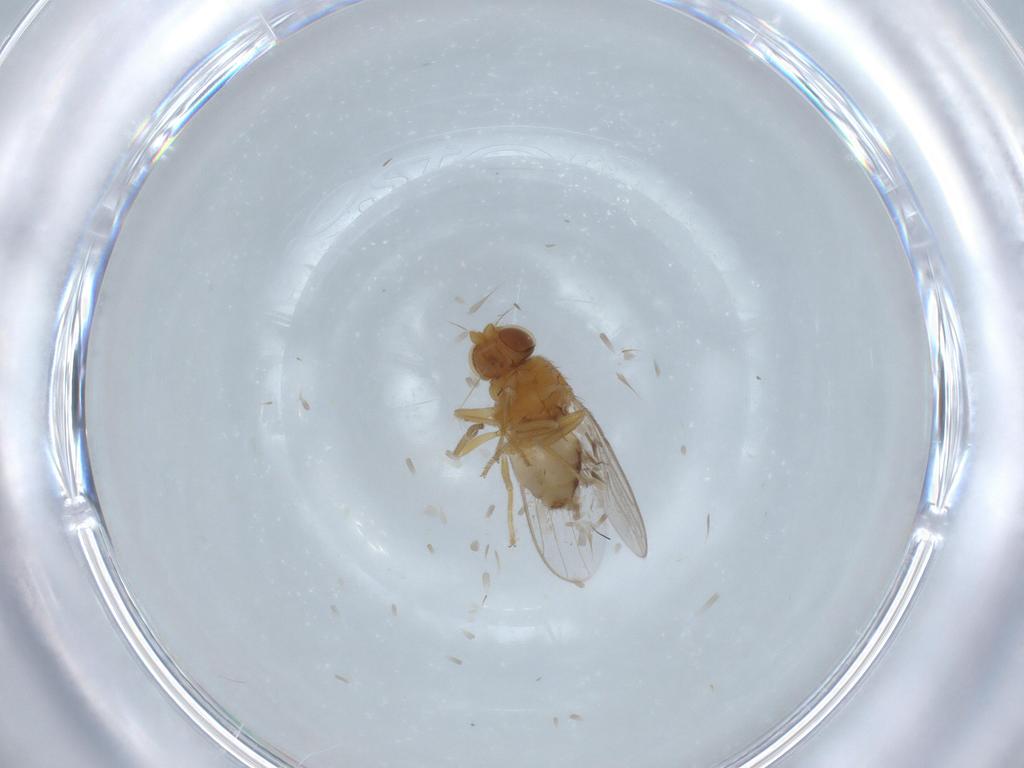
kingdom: Animalia
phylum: Arthropoda
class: Insecta
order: Diptera
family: Chloropidae
